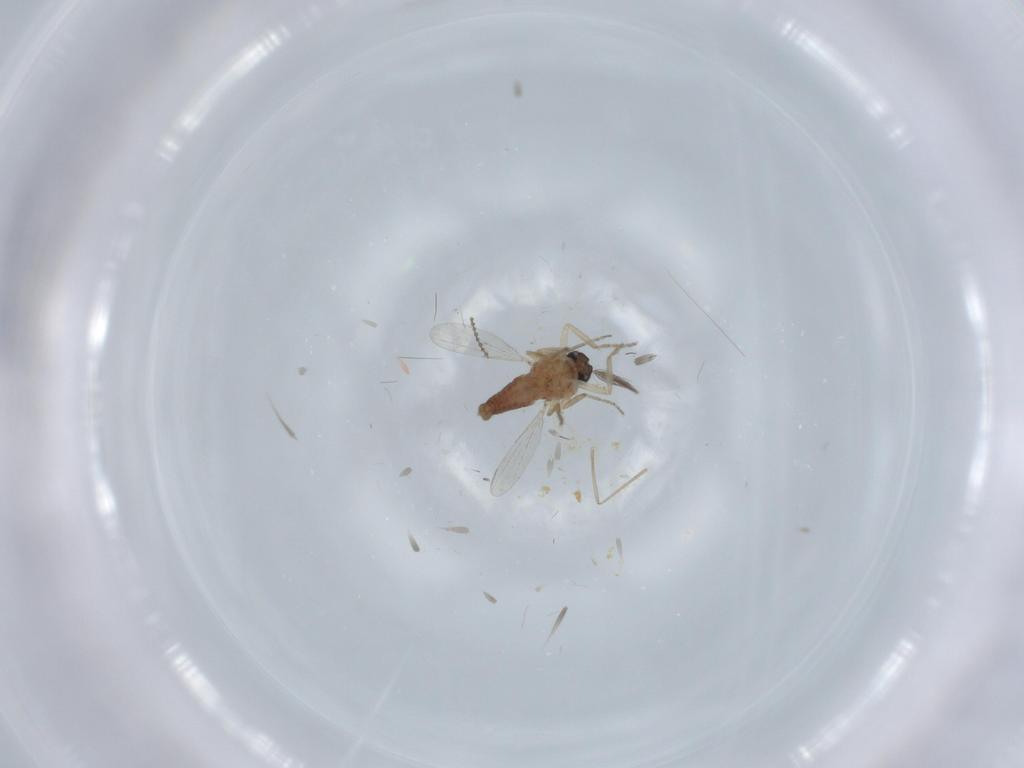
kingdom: Animalia
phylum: Arthropoda
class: Insecta
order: Diptera
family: Ceratopogonidae
